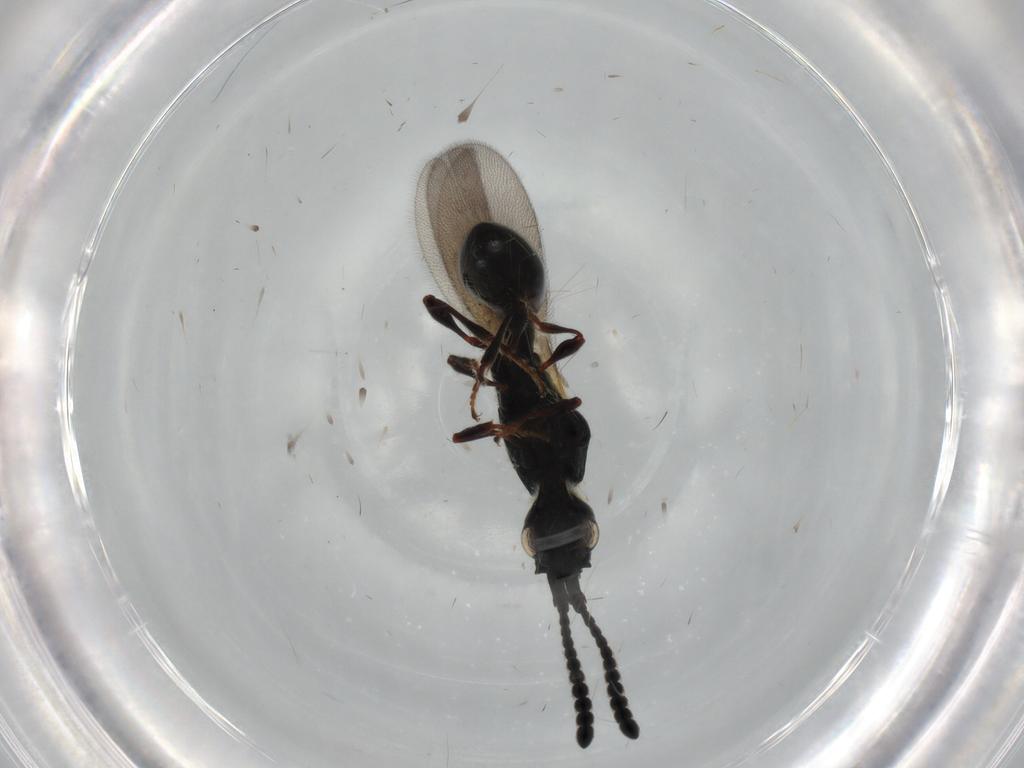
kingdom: Animalia
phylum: Arthropoda
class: Insecta
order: Hymenoptera
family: Diapriidae
